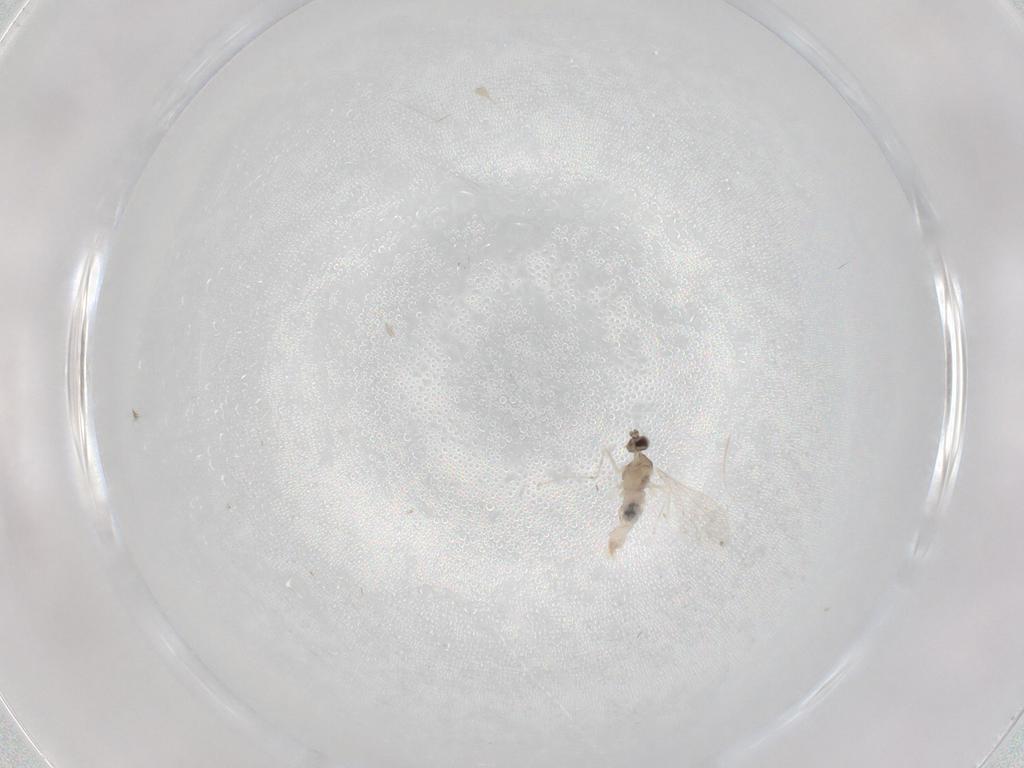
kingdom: Animalia
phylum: Arthropoda
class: Insecta
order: Diptera
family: Cecidomyiidae
